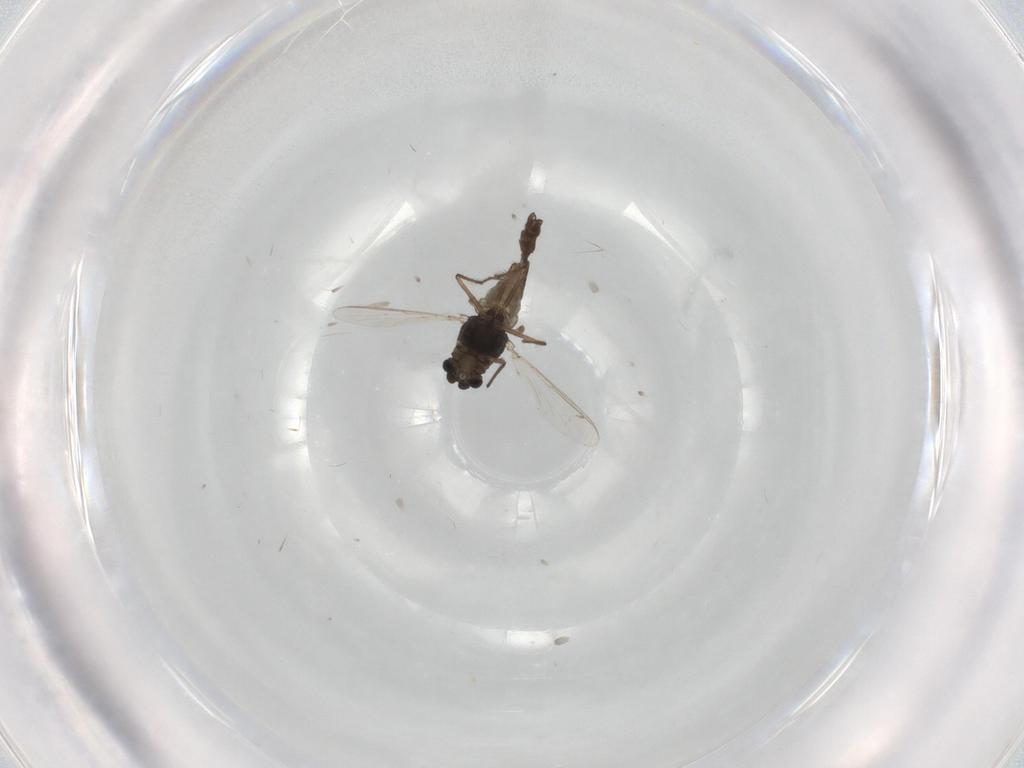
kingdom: Animalia
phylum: Arthropoda
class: Insecta
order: Diptera
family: Chironomidae
